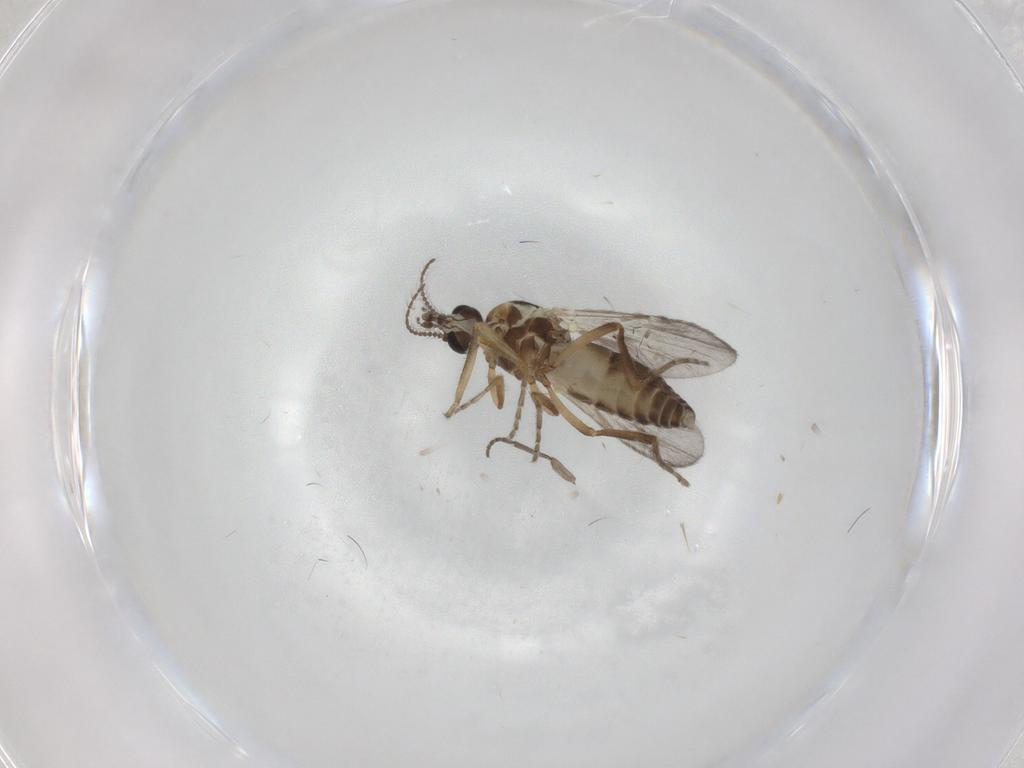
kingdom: Animalia
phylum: Arthropoda
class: Insecta
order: Diptera
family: Ceratopogonidae
